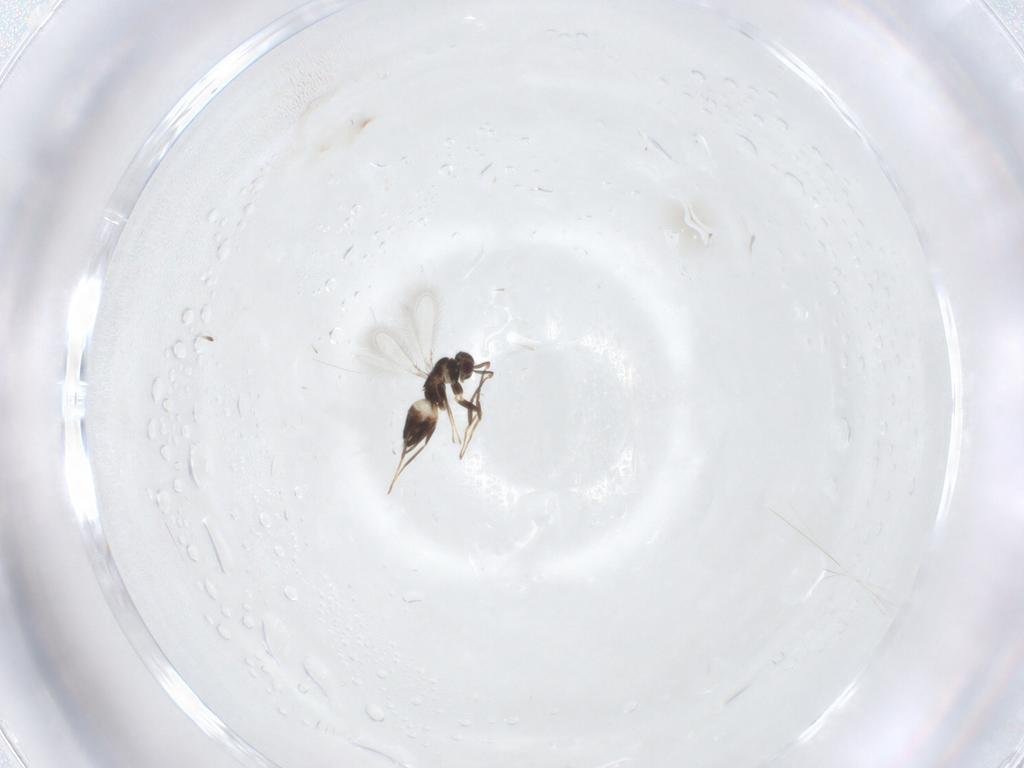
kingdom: Animalia
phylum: Arthropoda
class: Insecta
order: Hymenoptera
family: Mymaridae
